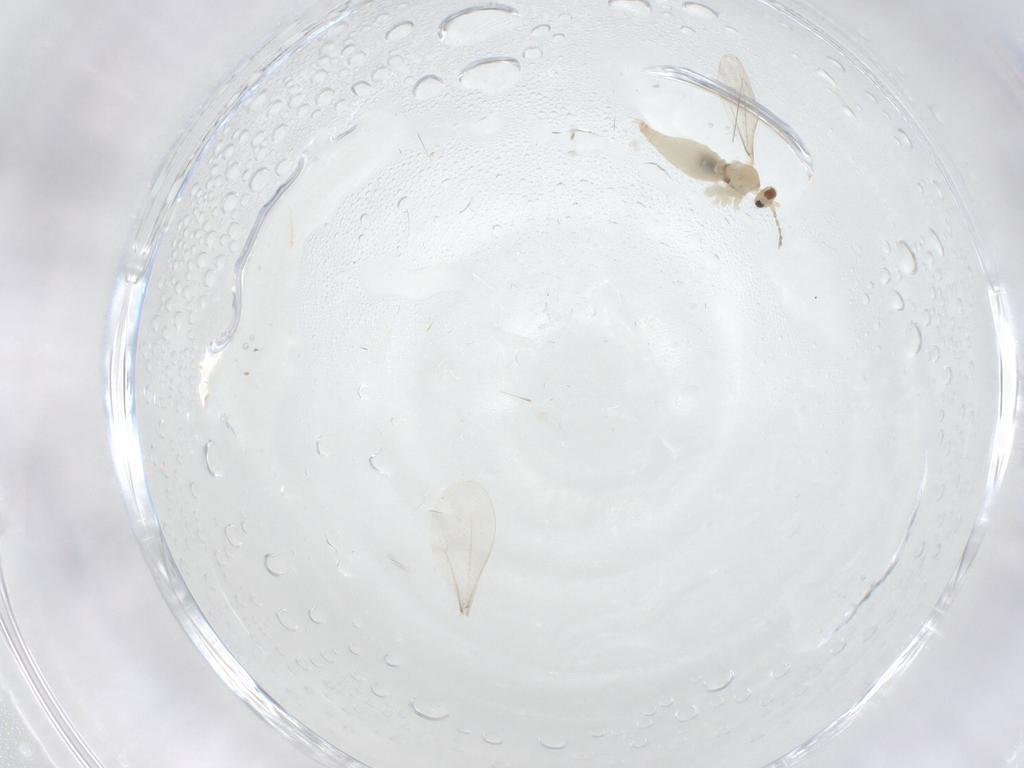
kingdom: Animalia
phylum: Arthropoda
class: Insecta
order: Diptera
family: Cecidomyiidae
